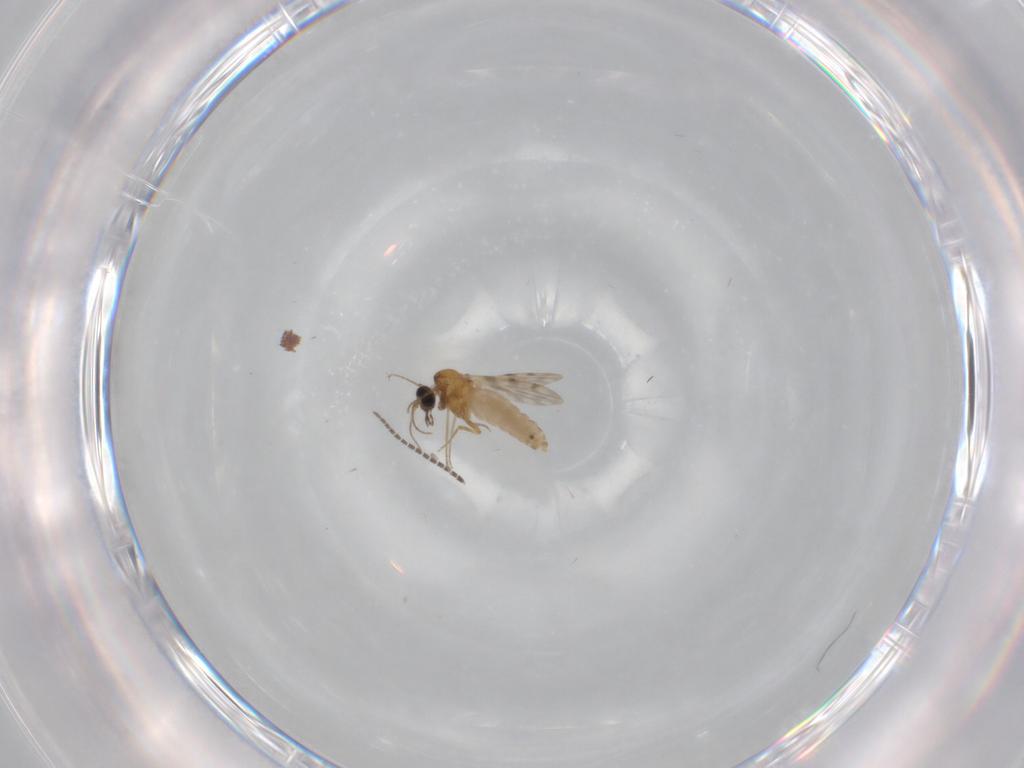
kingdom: Animalia
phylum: Arthropoda
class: Insecta
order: Diptera
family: Ceratopogonidae
